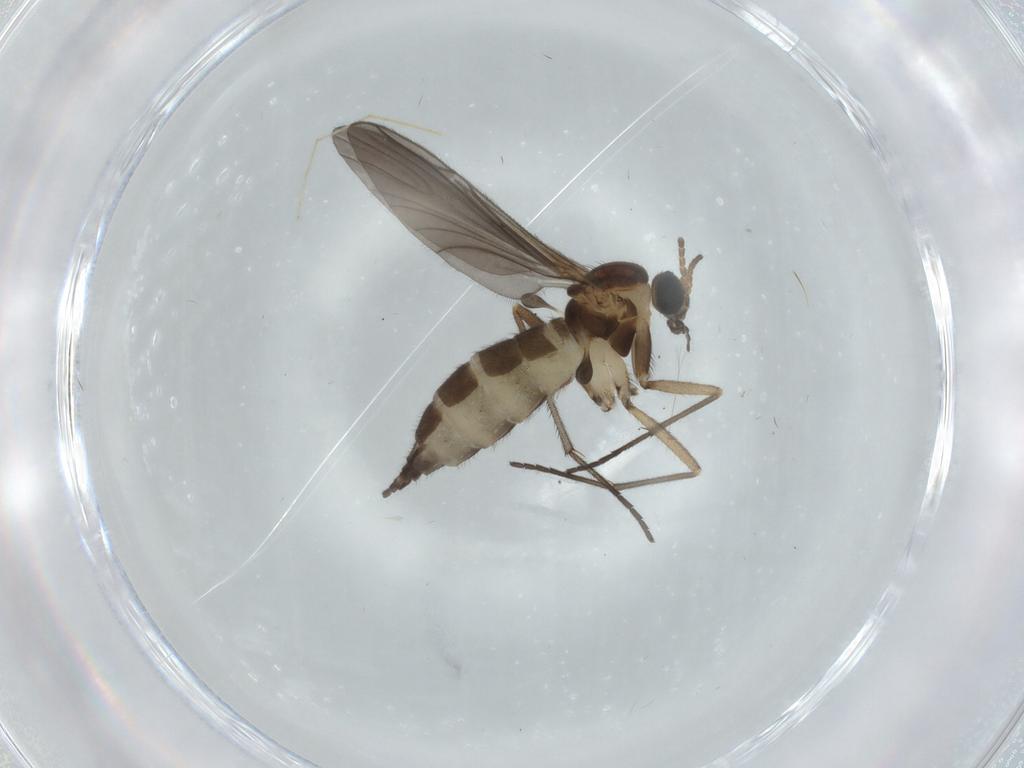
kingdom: Animalia
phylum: Arthropoda
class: Insecta
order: Diptera
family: Sciaridae
